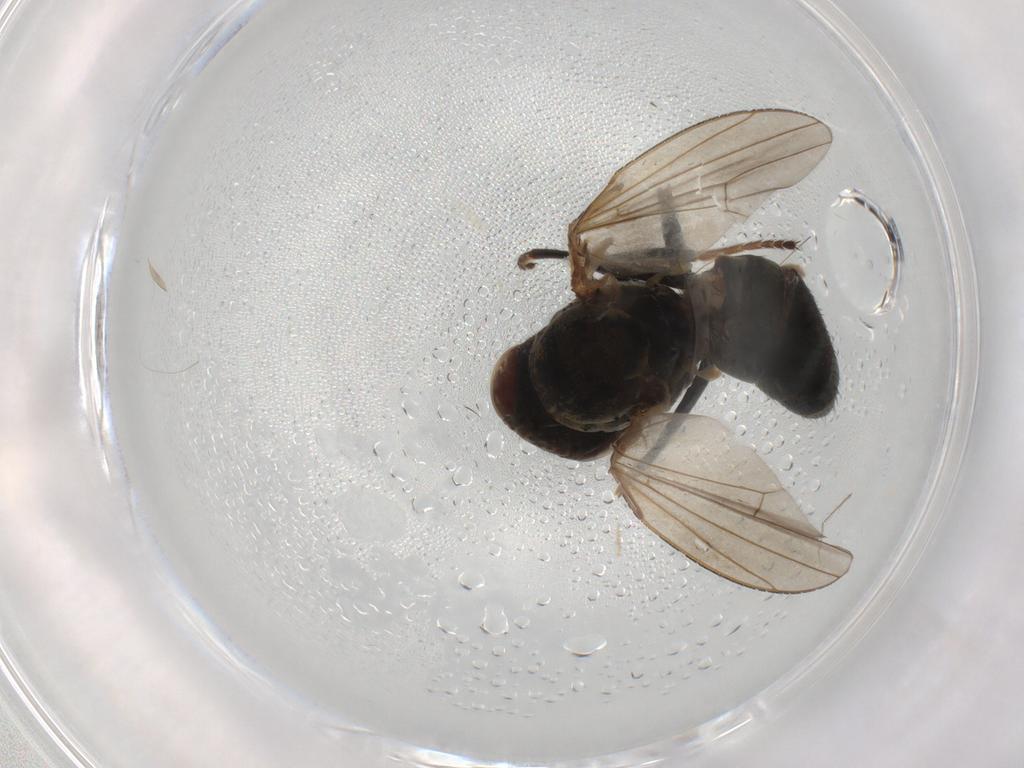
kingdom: Animalia
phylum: Arthropoda
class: Insecta
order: Diptera
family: Ephydridae
